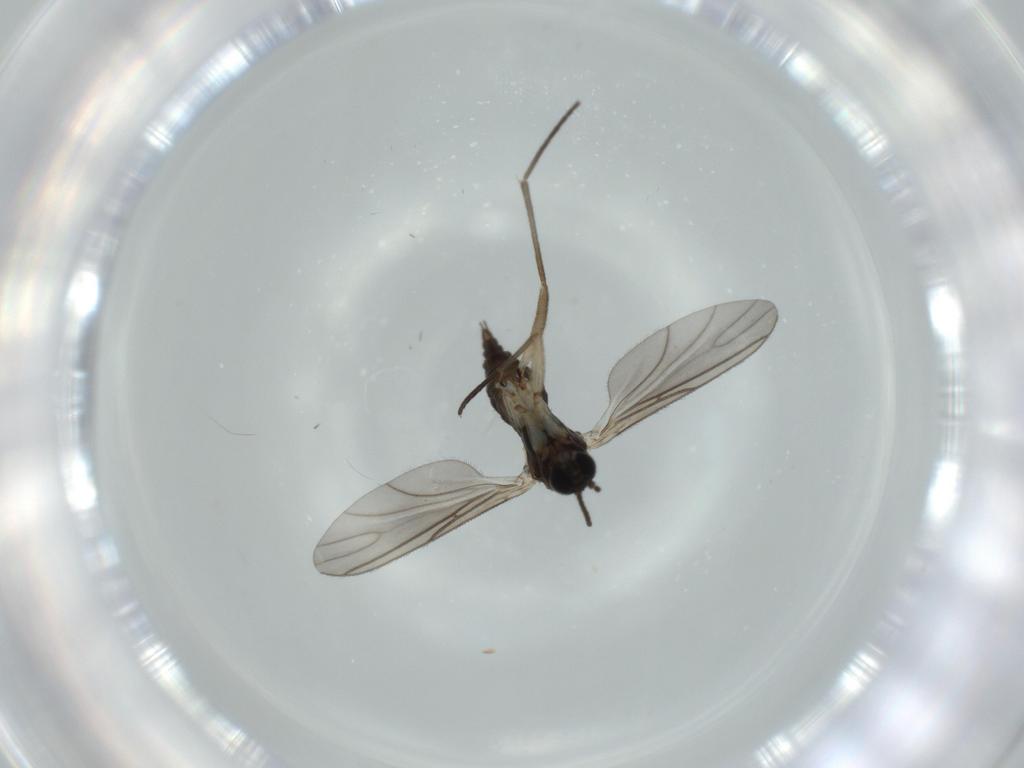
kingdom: Animalia
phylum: Arthropoda
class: Insecta
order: Diptera
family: Sciaridae
